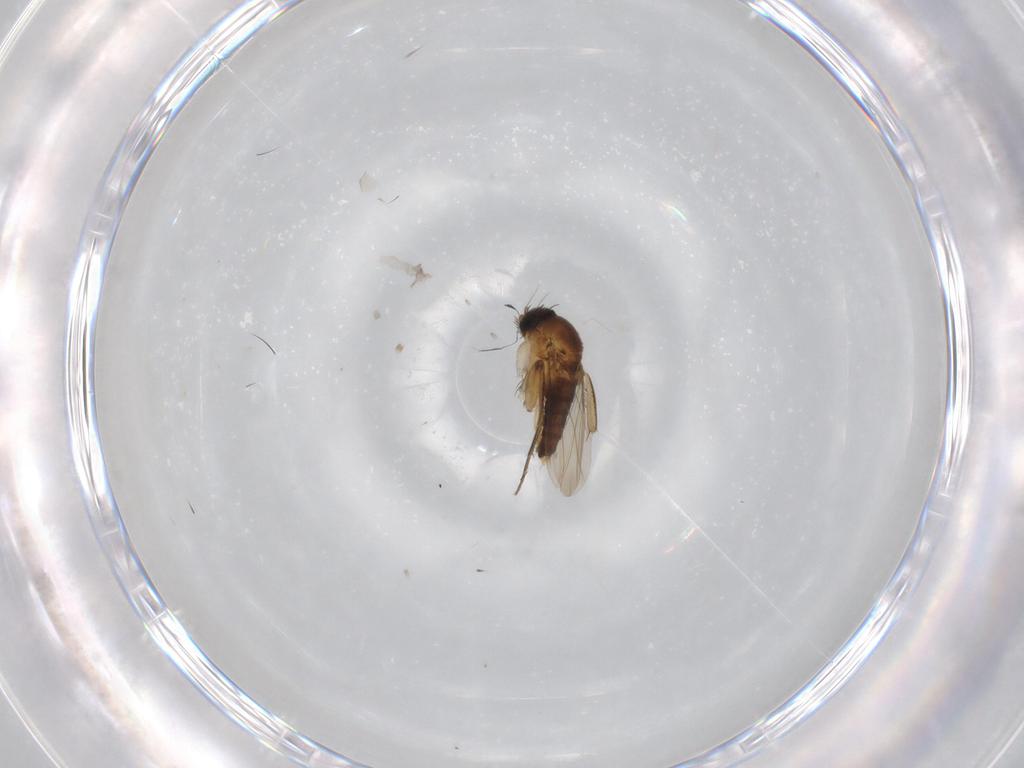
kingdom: Animalia
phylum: Arthropoda
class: Insecta
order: Diptera
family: Phoridae
